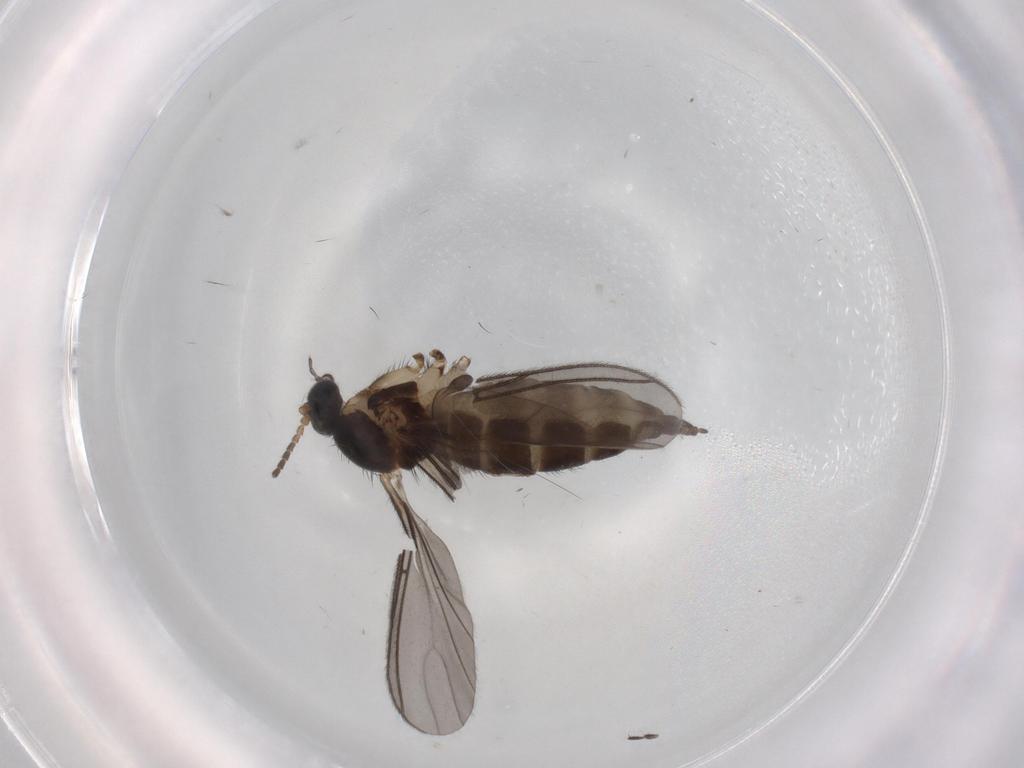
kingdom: Animalia
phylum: Arthropoda
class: Insecta
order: Diptera
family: Sciaridae
